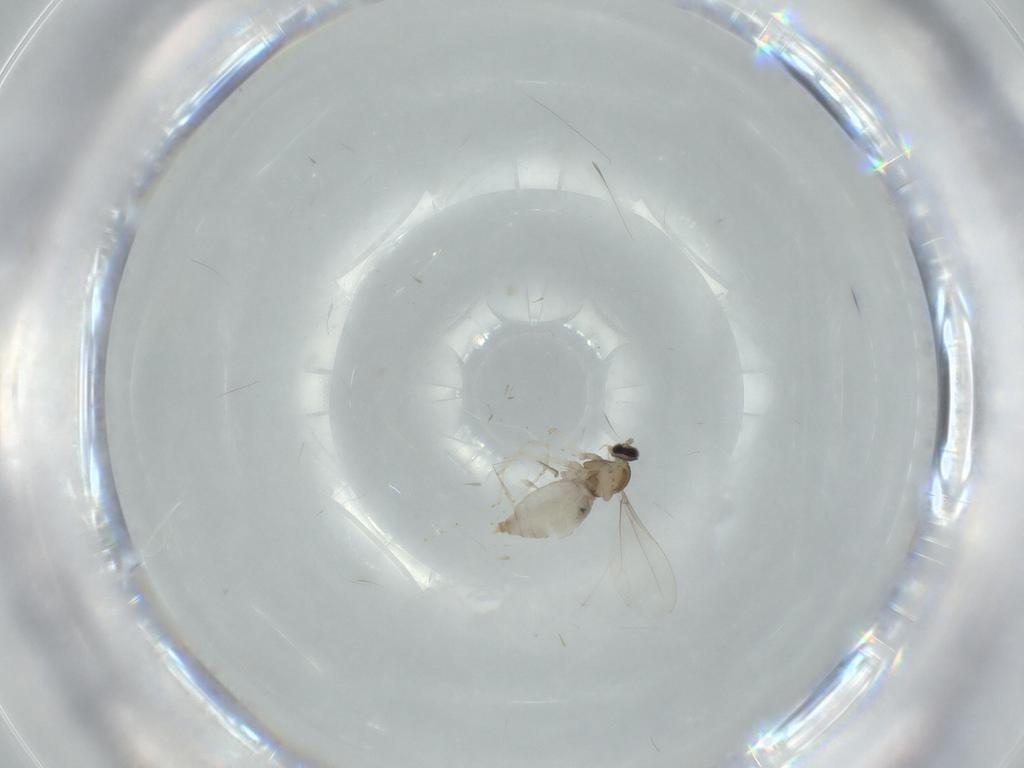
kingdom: Animalia
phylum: Arthropoda
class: Insecta
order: Diptera
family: Cecidomyiidae
